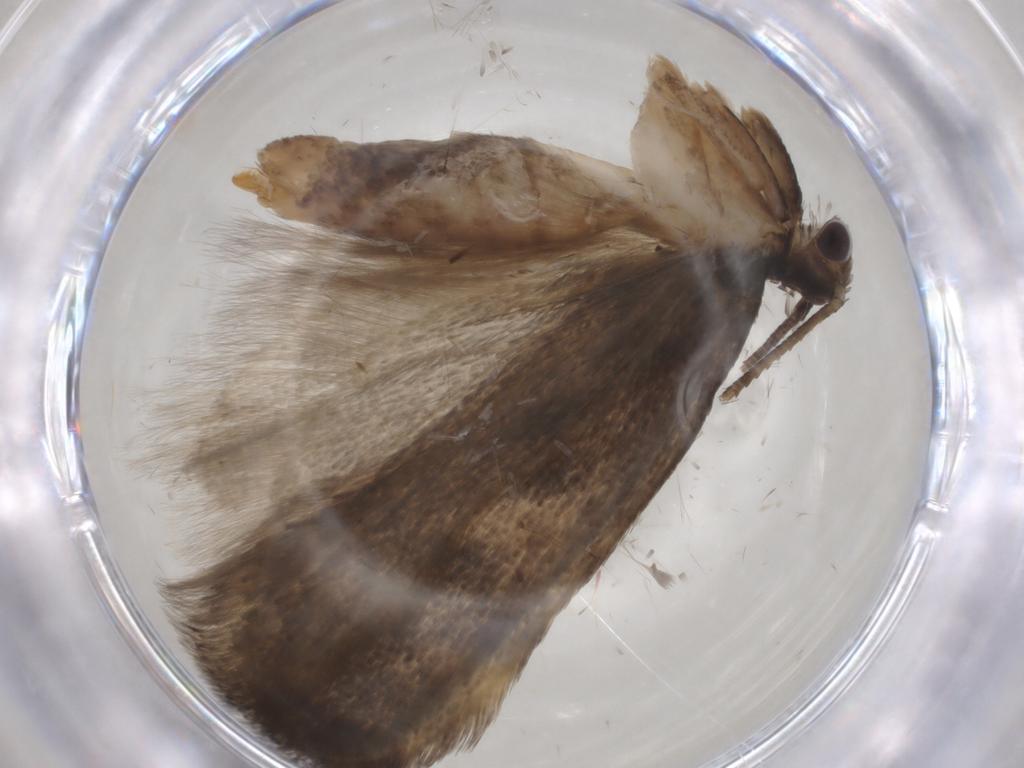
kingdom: Animalia
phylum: Arthropoda
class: Insecta
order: Lepidoptera
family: Gelechiidae
